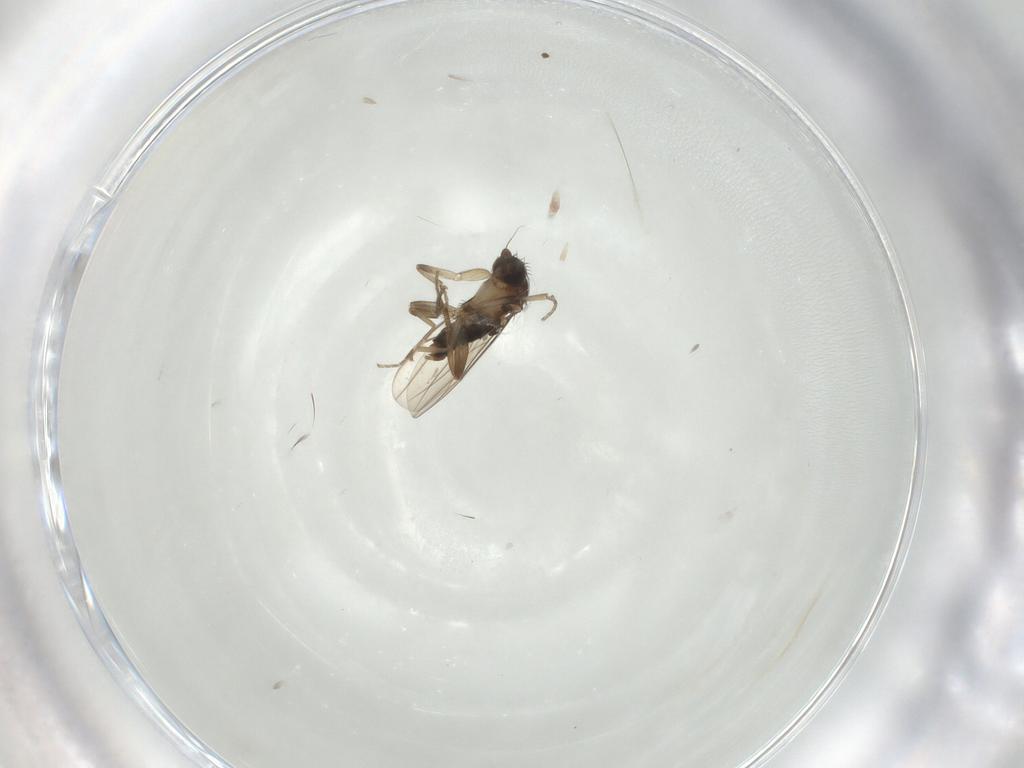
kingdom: Animalia
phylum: Arthropoda
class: Insecta
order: Diptera
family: Phoridae
